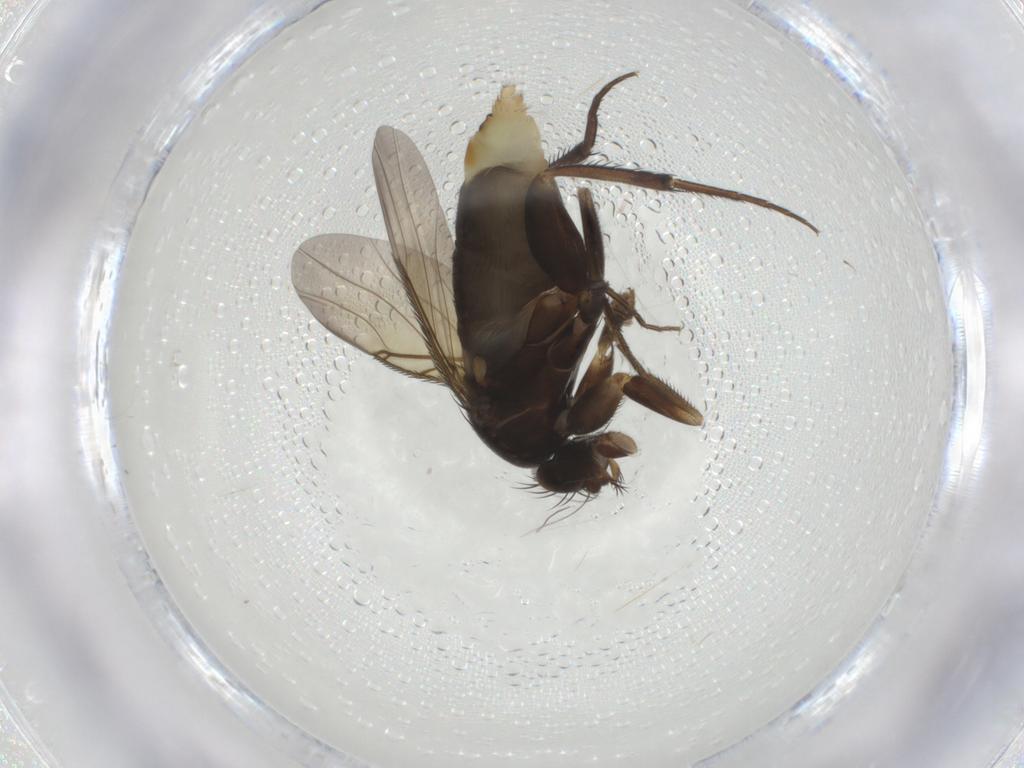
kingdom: Animalia
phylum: Arthropoda
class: Insecta
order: Diptera
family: Phoridae
